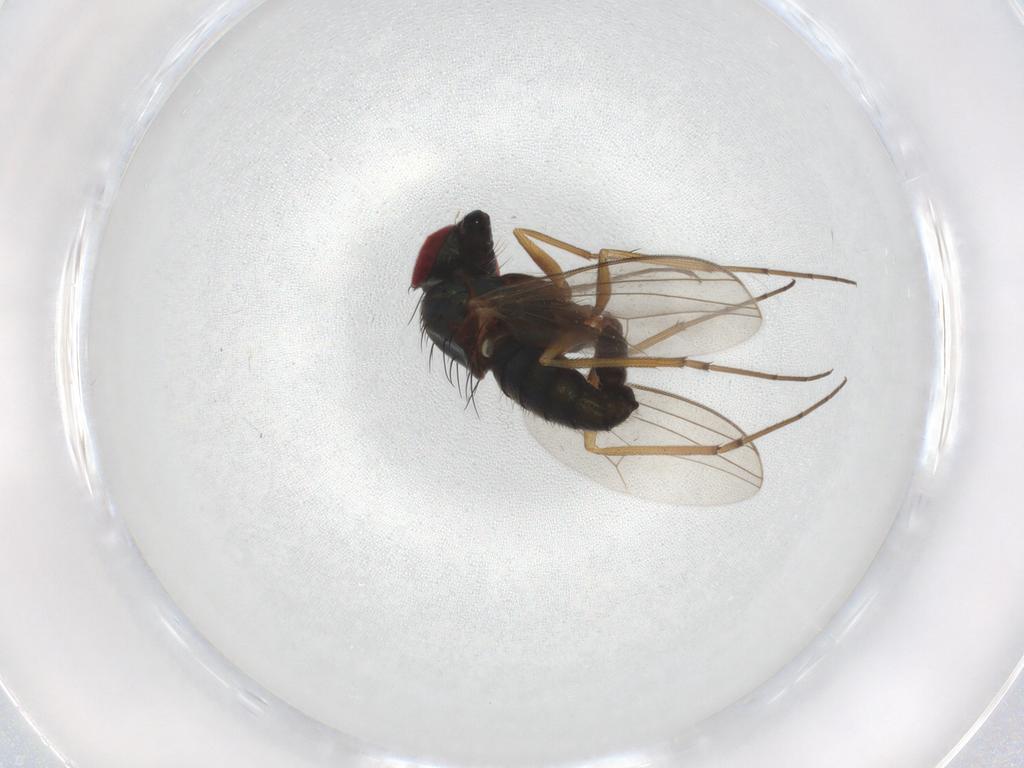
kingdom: Animalia
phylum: Arthropoda
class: Insecta
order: Diptera
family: Dolichopodidae
